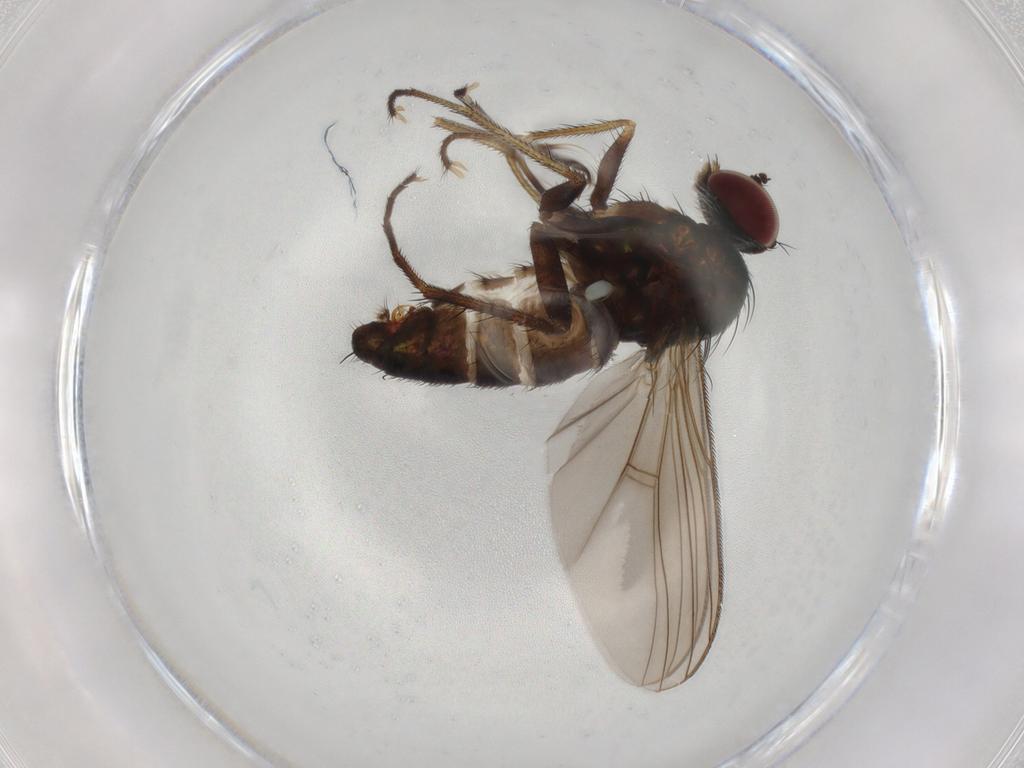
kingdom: Animalia
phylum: Arthropoda
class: Insecta
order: Diptera
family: Dolichopodidae
